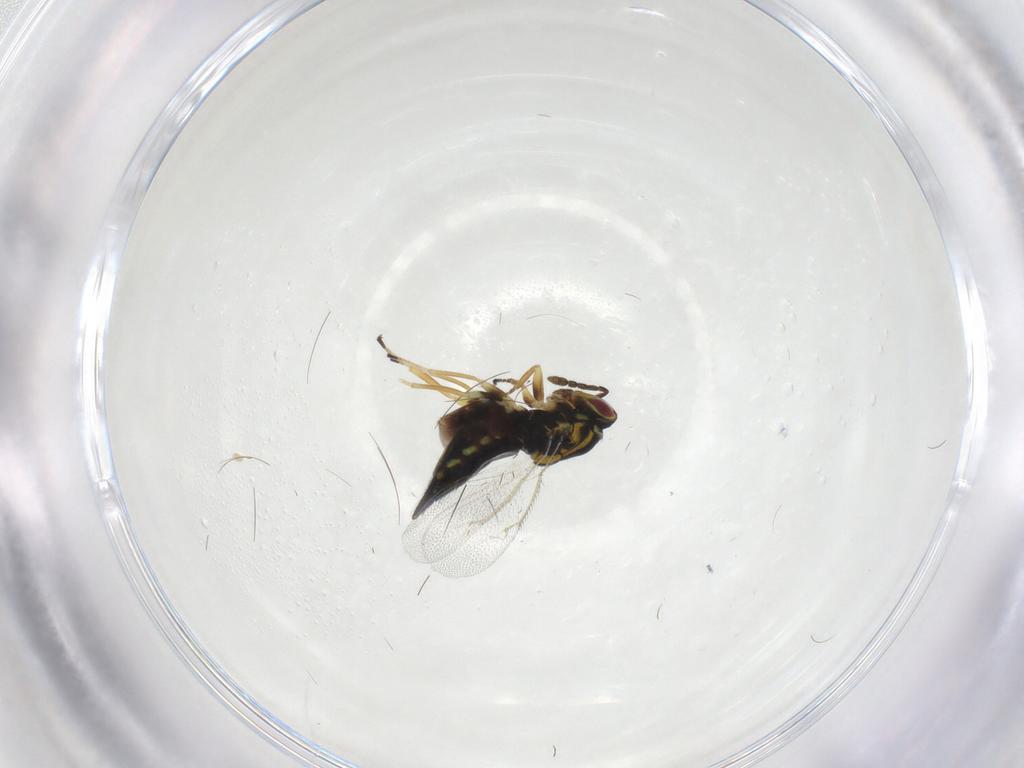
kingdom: Animalia
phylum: Arthropoda
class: Insecta
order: Hymenoptera
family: Eulophidae
